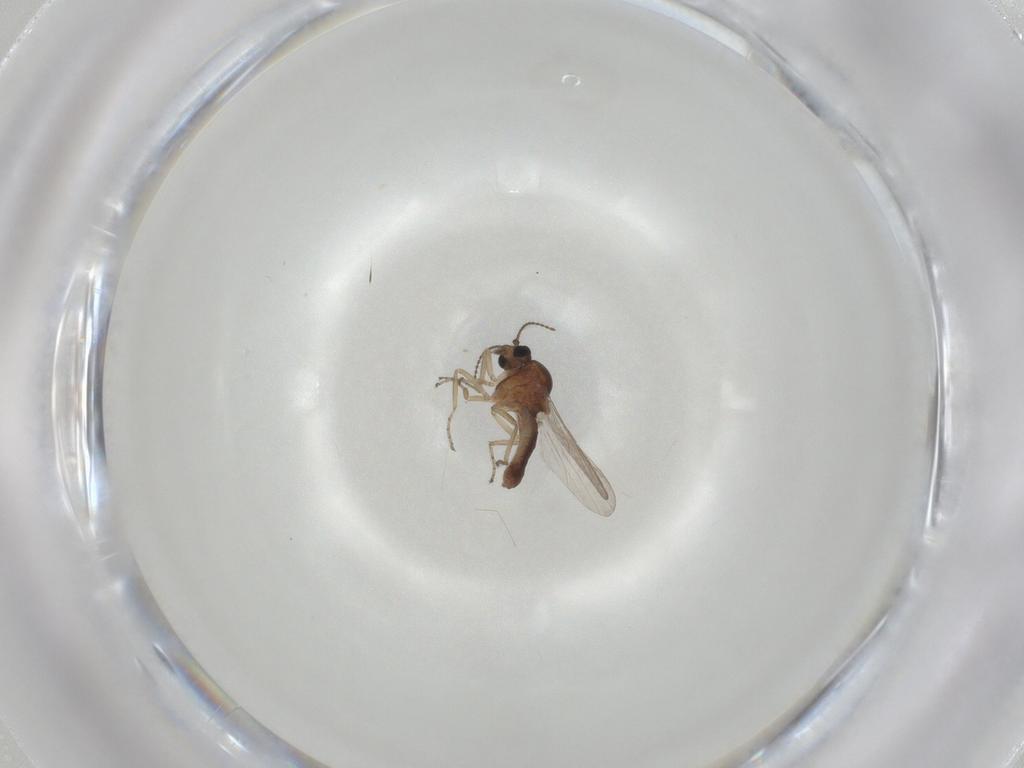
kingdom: Animalia
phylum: Arthropoda
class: Insecta
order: Diptera
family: Ceratopogonidae
